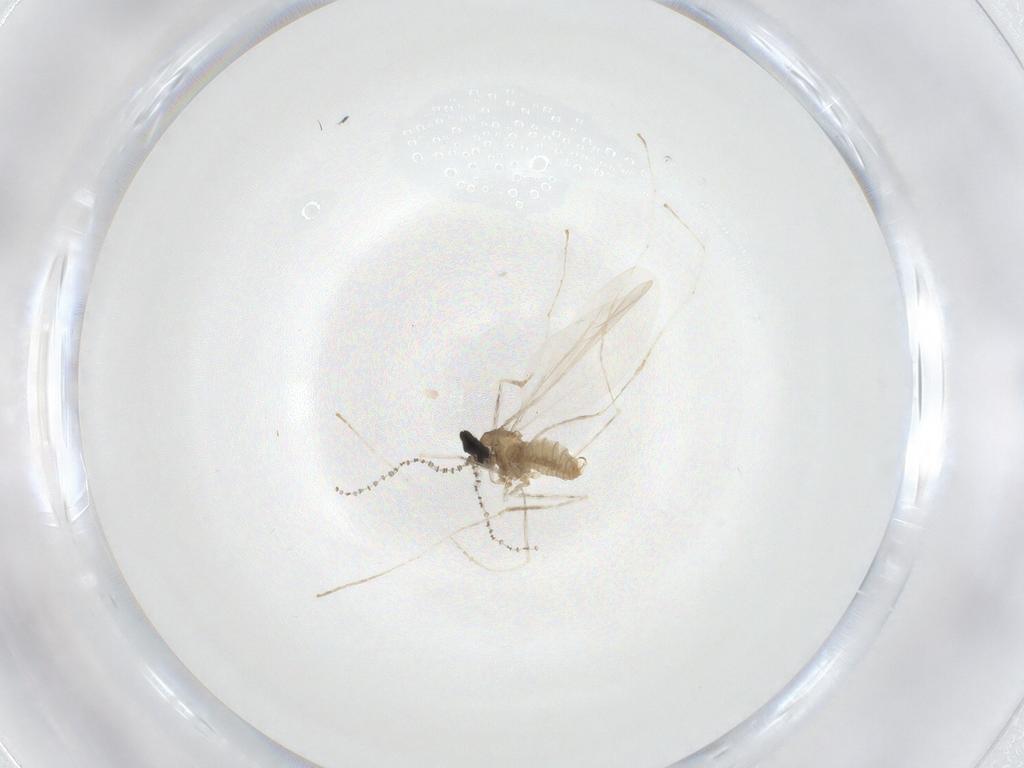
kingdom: Animalia
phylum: Arthropoda
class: Insecta
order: Diptera
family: Cecidomyiidae
